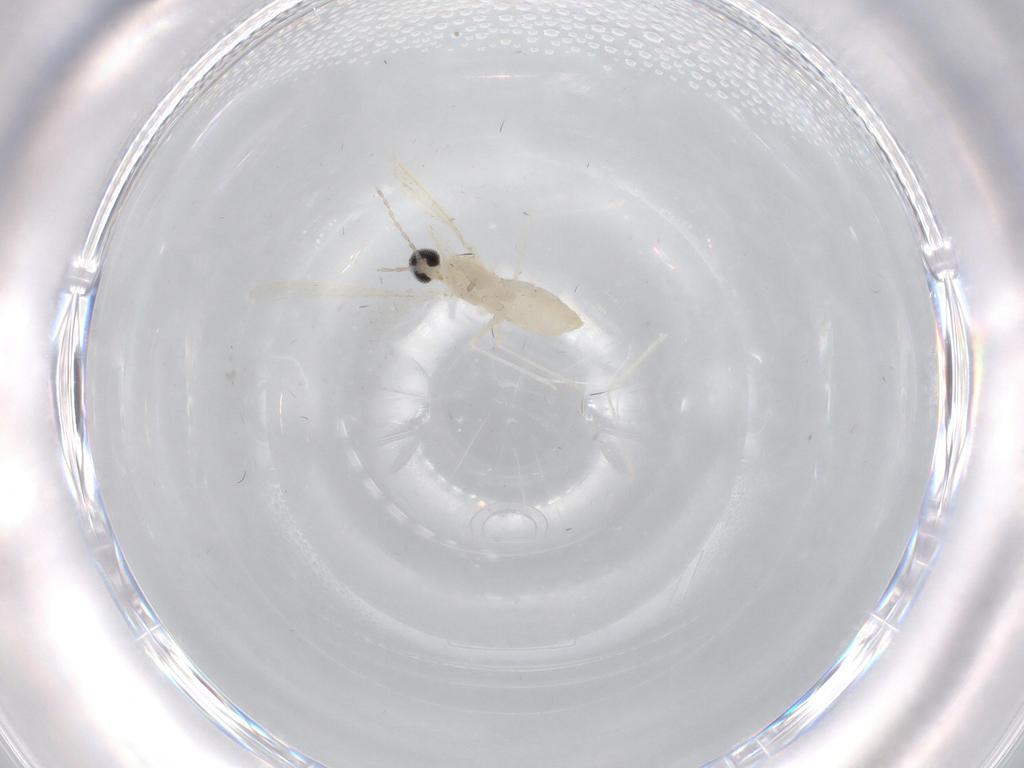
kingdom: Animalia
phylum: Arthropoda
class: Insecta
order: Diptera
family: Cecidomyiidae
